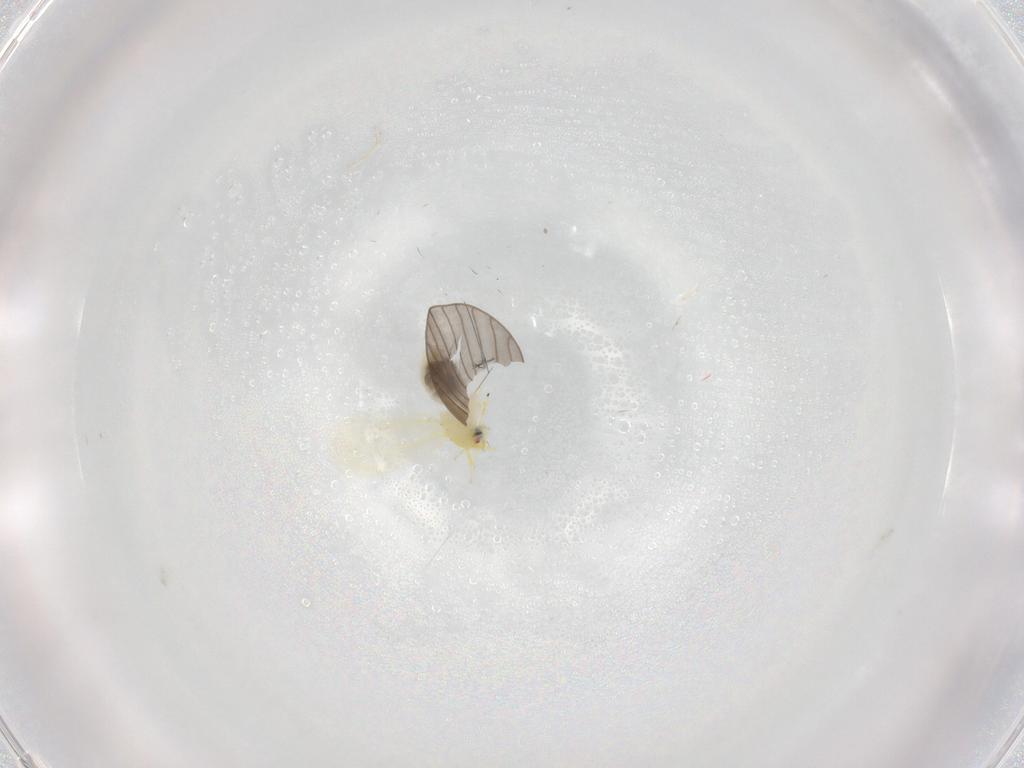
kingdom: Animalia
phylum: Arthropoda
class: Insecta
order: Hemiptera
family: Aleyrodidae
